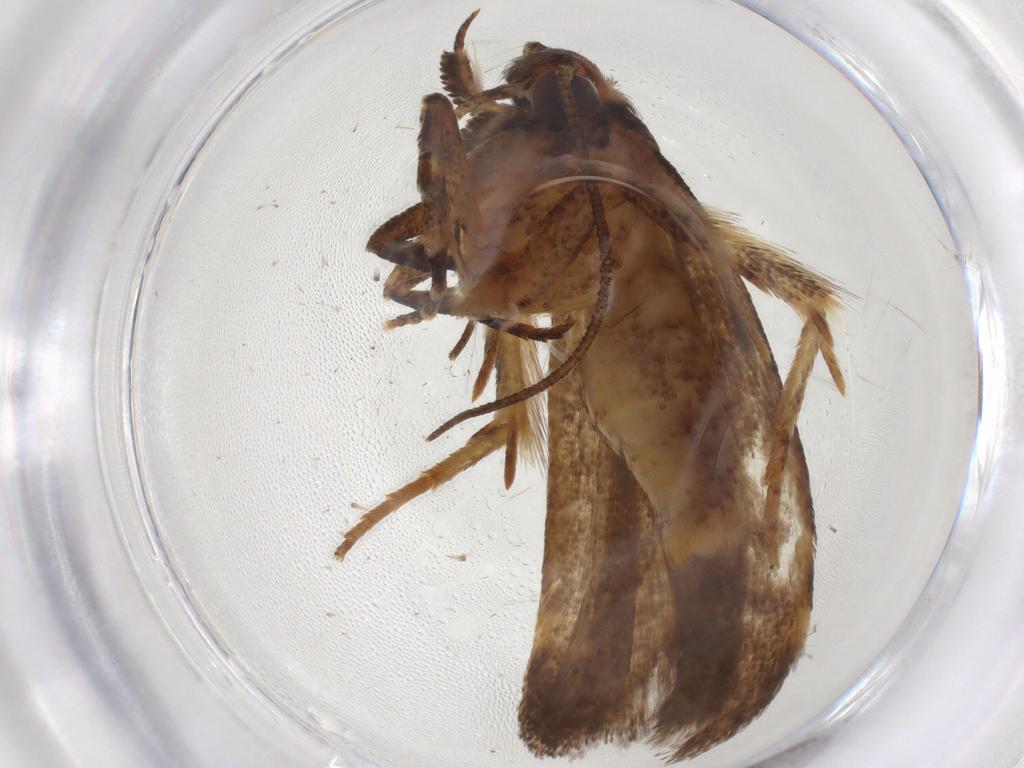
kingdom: Animalia
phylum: Arthropoda
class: Insecta
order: Lepidoptera
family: Gelechiidae
